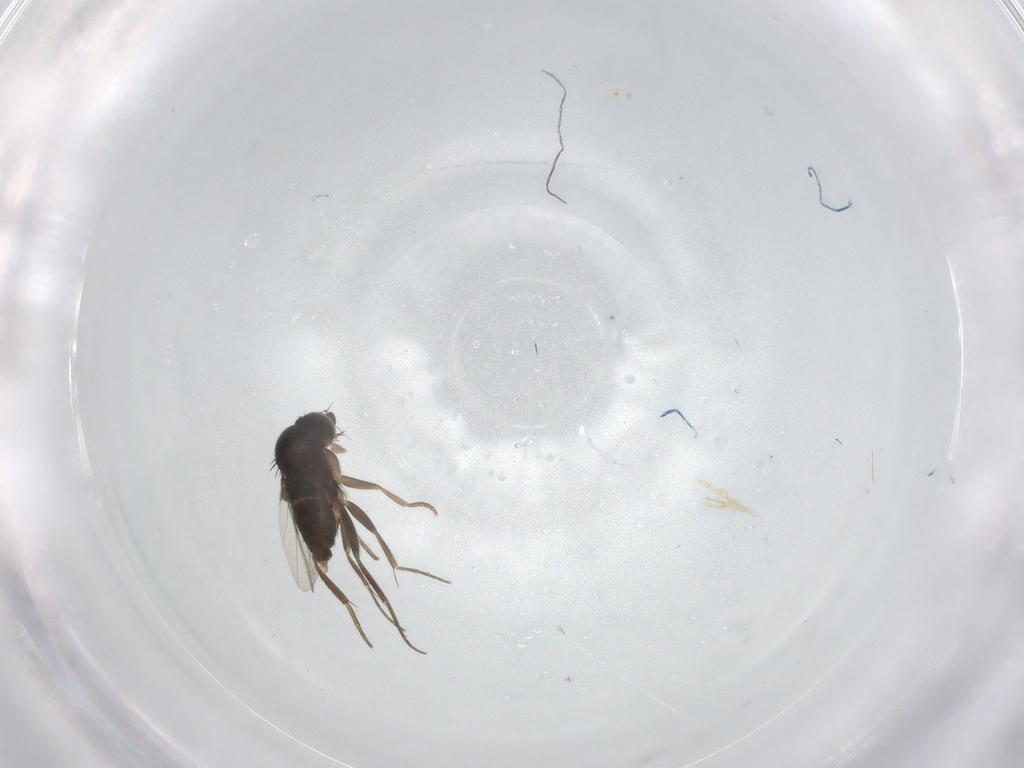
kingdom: Animalia
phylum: Arthropoda
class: Insecta
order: Diptera
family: Phoridae
